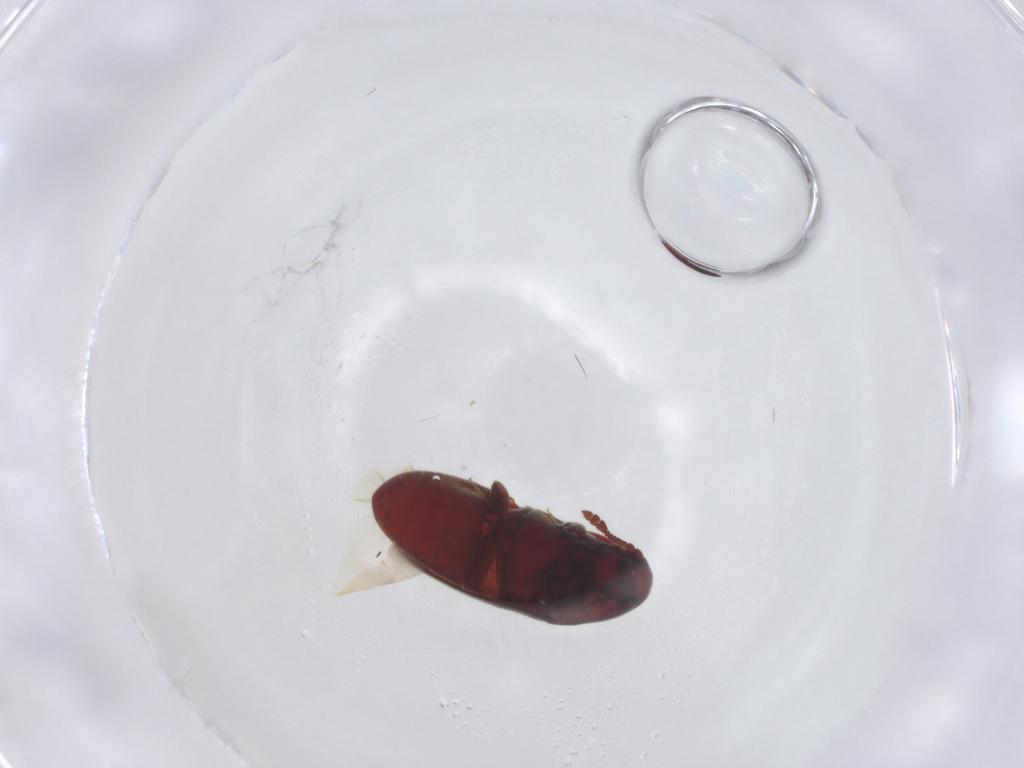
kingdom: Animalia
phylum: Arthropoda
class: Insecta
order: Coleoptera
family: Throscidae
